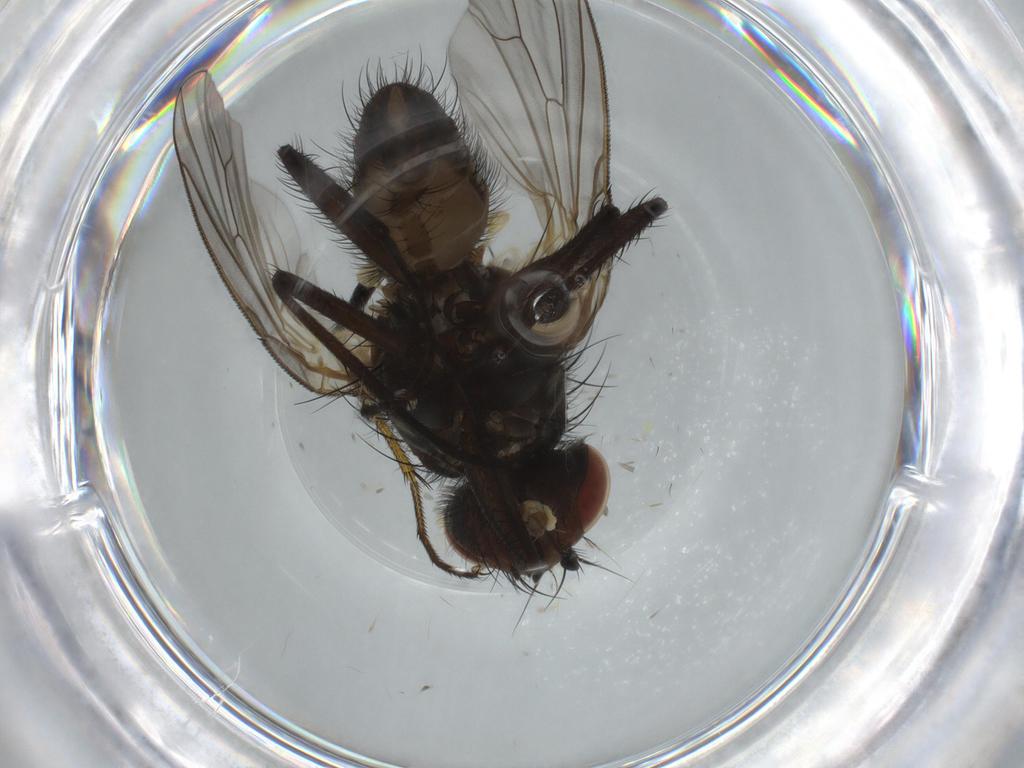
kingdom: Animalia
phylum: Arthropoda
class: Insecta
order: Diptera
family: Anthomyiidae
